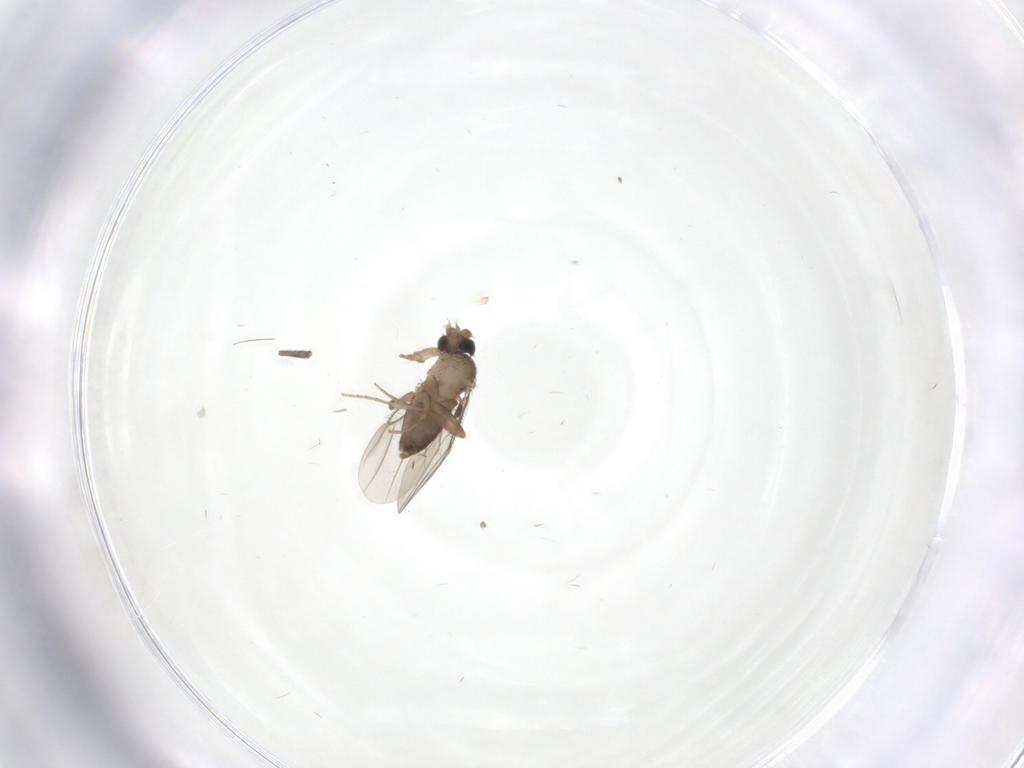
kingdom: Animalia
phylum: Arthropoda
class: Insecta
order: Diptera
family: Phoridae
